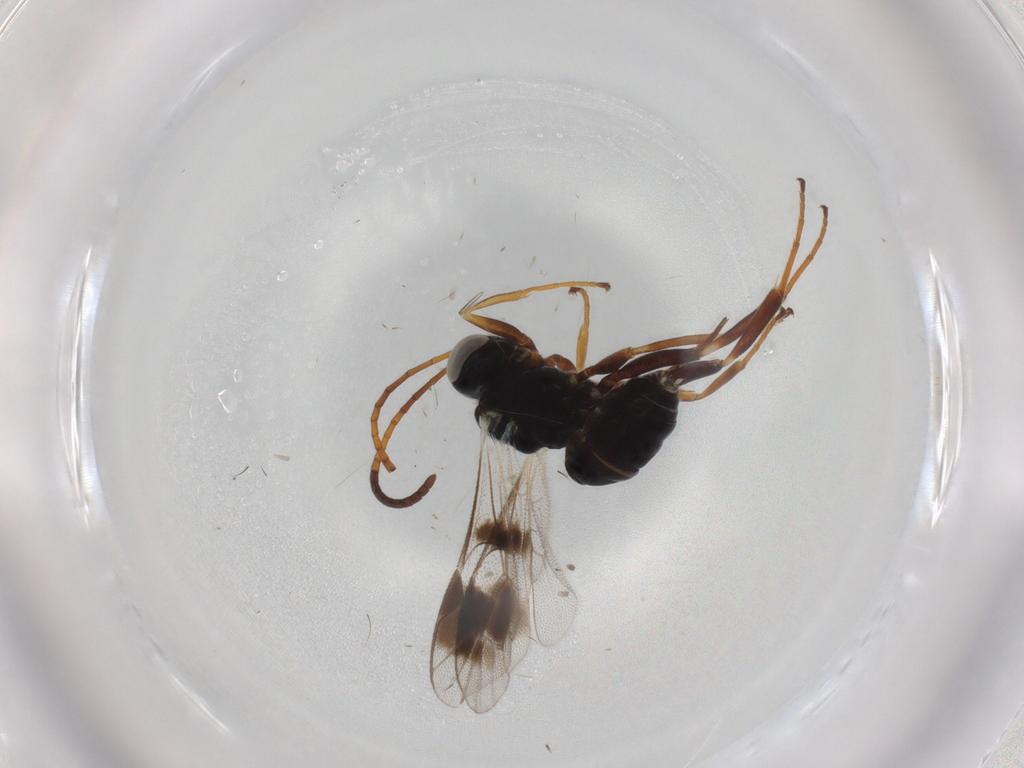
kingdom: Animalia
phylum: Arthropoda
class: Insecta
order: Hymenoptera
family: Ichneumonidae
